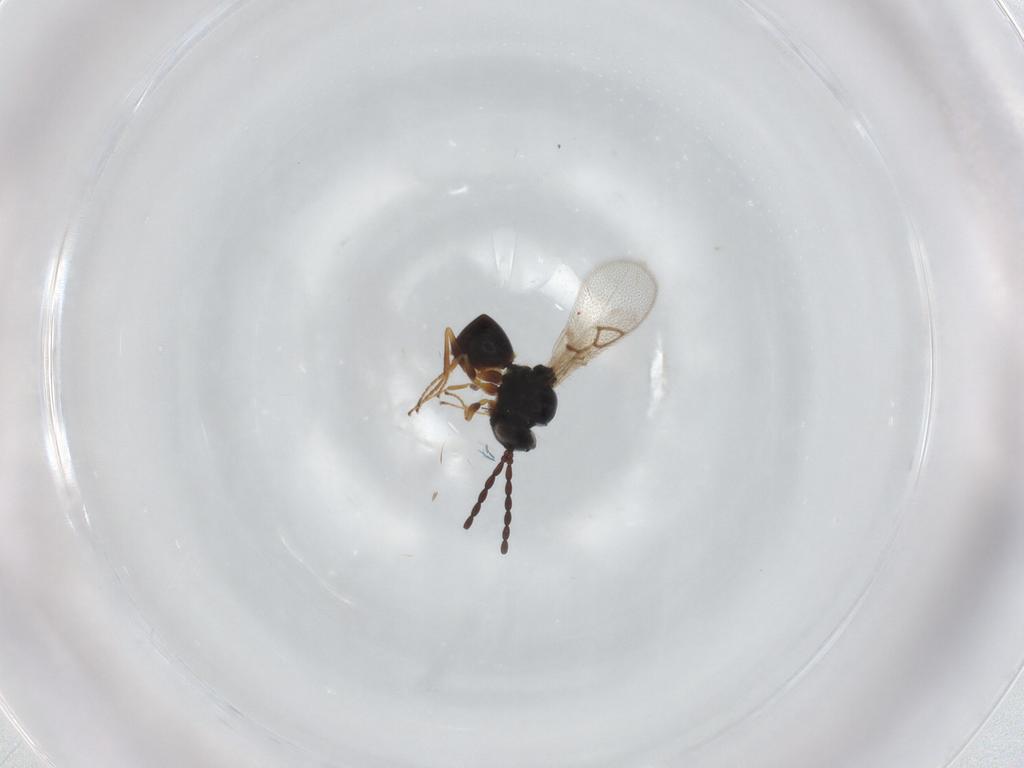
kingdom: Animalia
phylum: Arthropoda
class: Insecta
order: Hymenoptera
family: Figitidae
